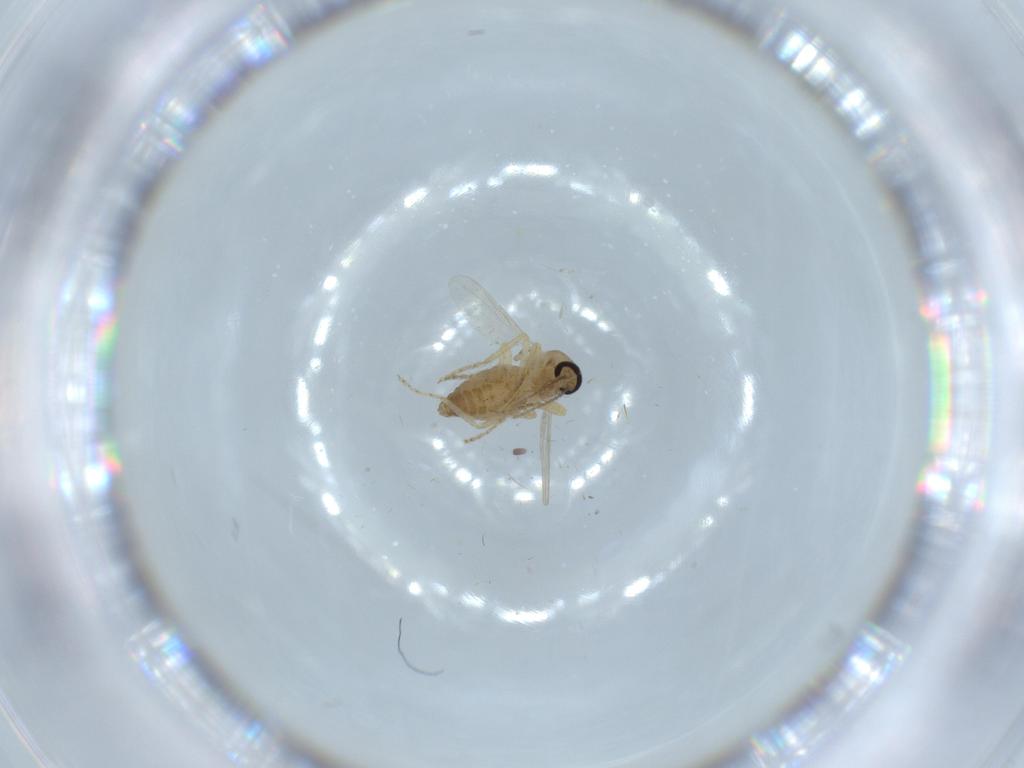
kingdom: Animalia
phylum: Arthropoda
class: Insecta
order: Diptera
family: Ceratopogonidae
